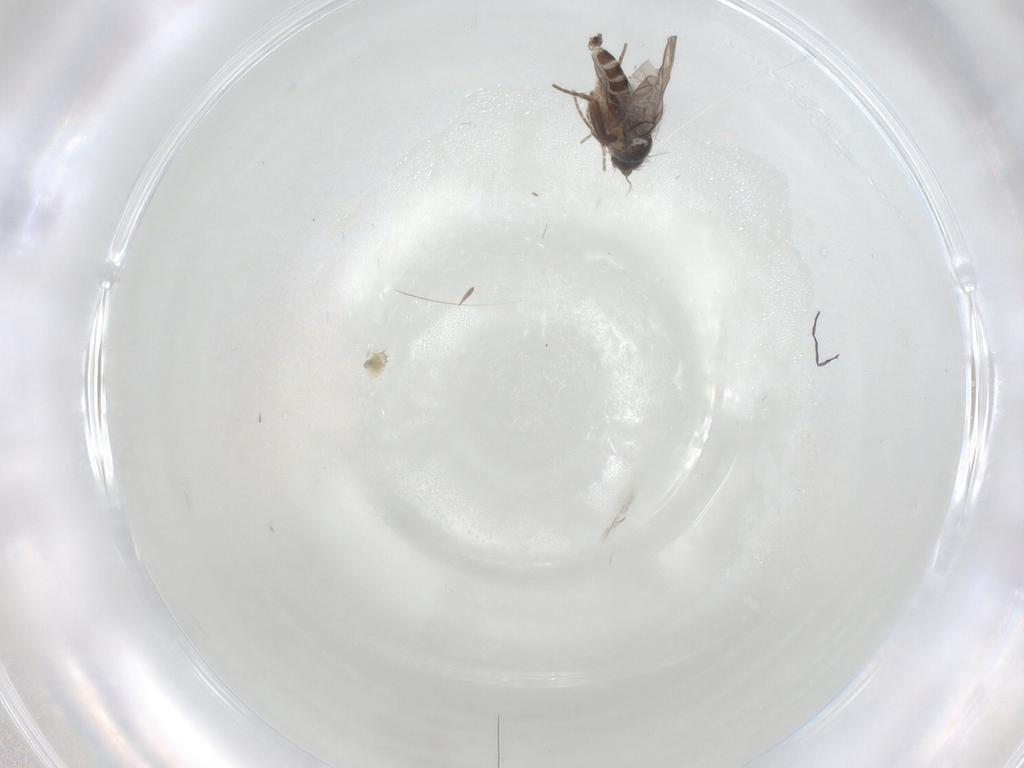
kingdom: Animalia
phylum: Arthropoda
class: Insecta
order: Diptera
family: Phoridae
